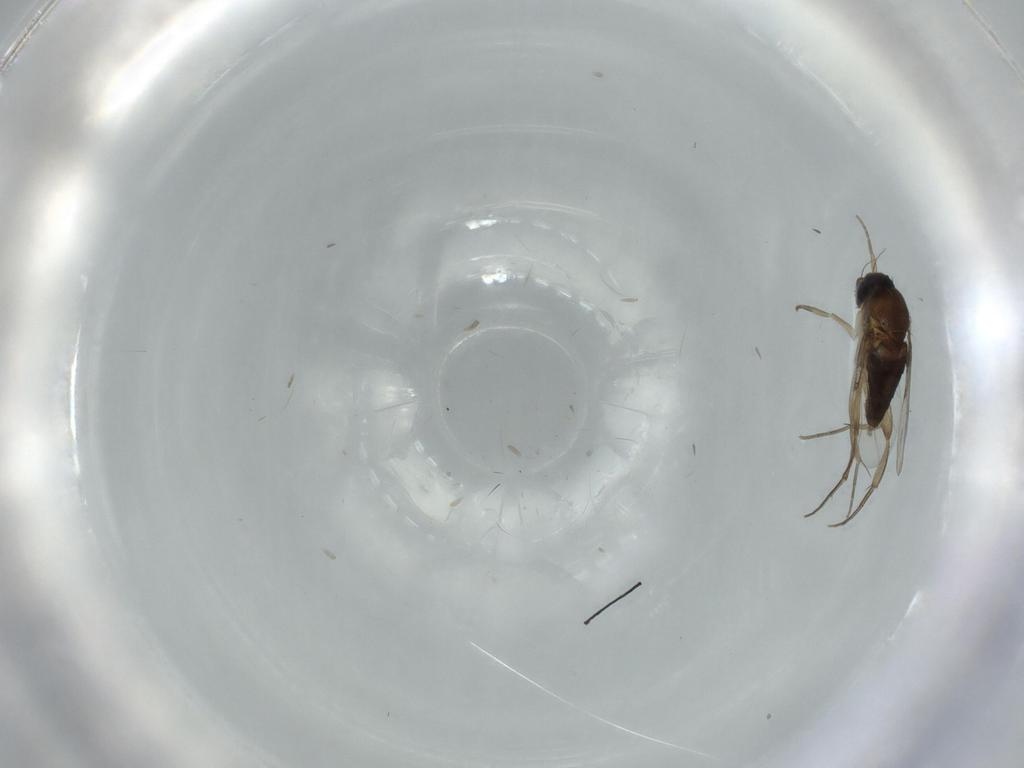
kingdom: Animalia
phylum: Arthropoda
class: Insecta
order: Diptera
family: Phoridae
